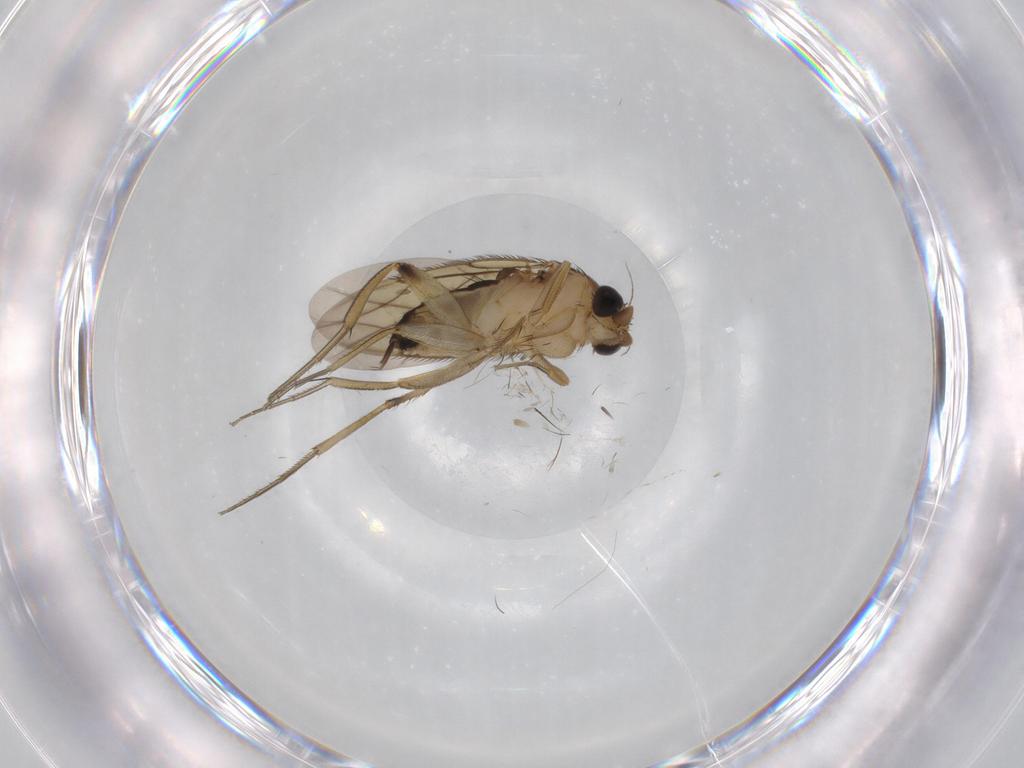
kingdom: Animalia
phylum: Arthropoda
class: Insecta
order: Diptera
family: Phoridae
